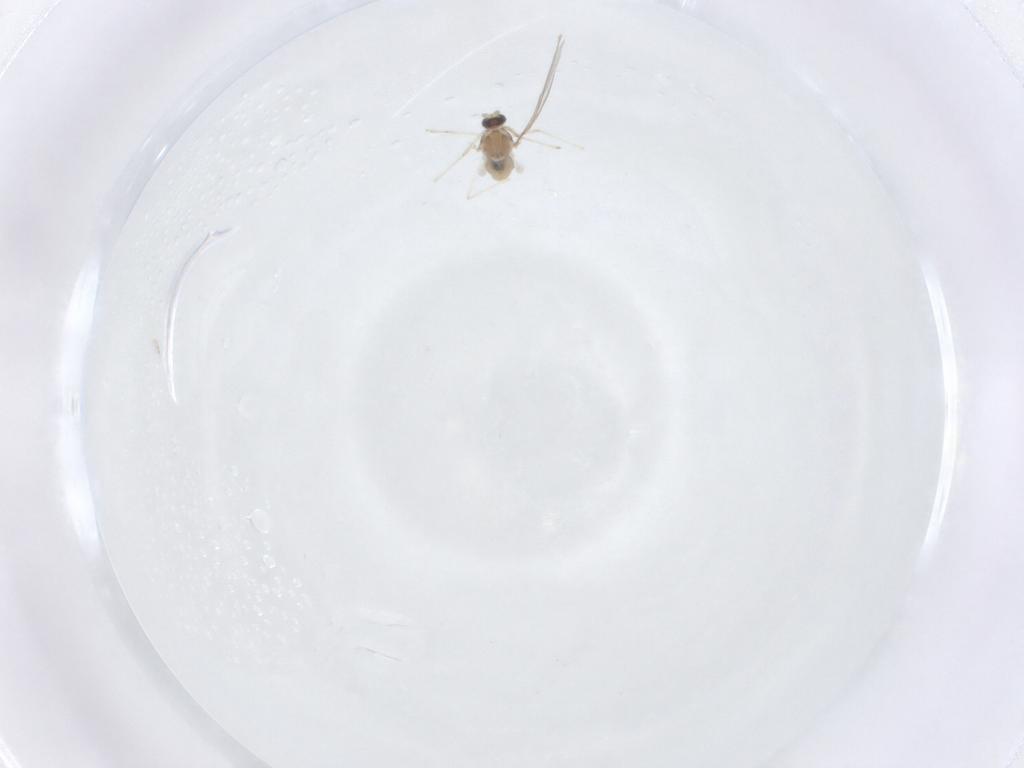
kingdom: Animalia
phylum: Arthropoda
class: Insecta
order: Diptera
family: Cecidomyiidae
